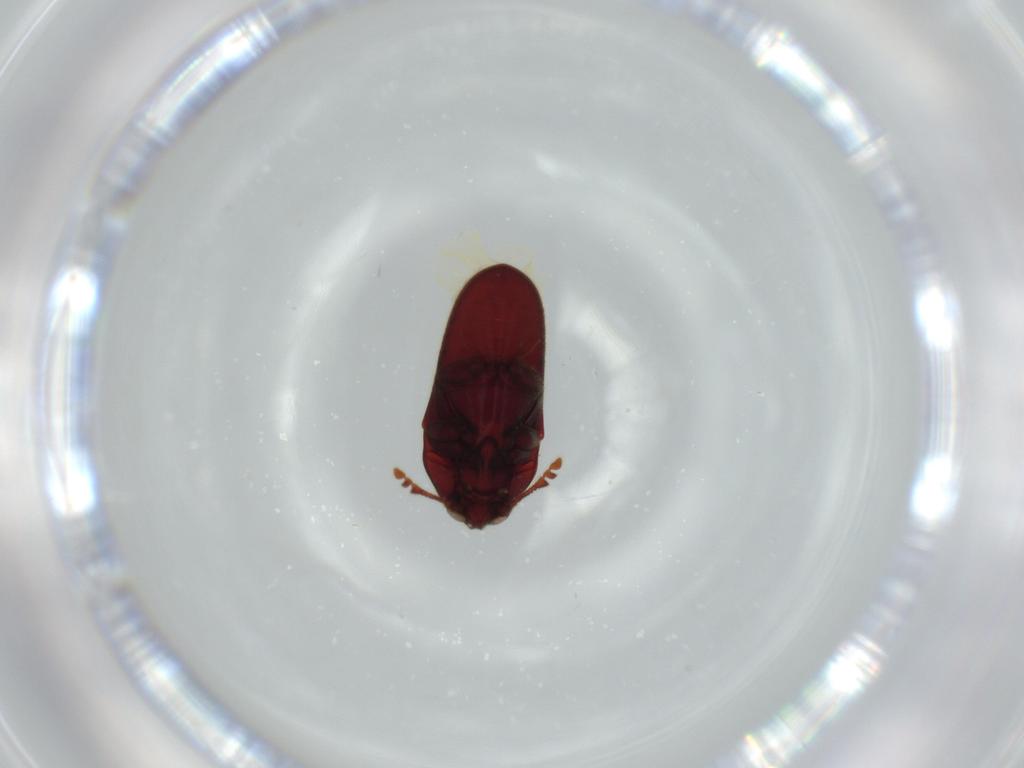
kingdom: Animalia
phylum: Arthropoda
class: Insecta
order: Coleoptera
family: Throscidae
